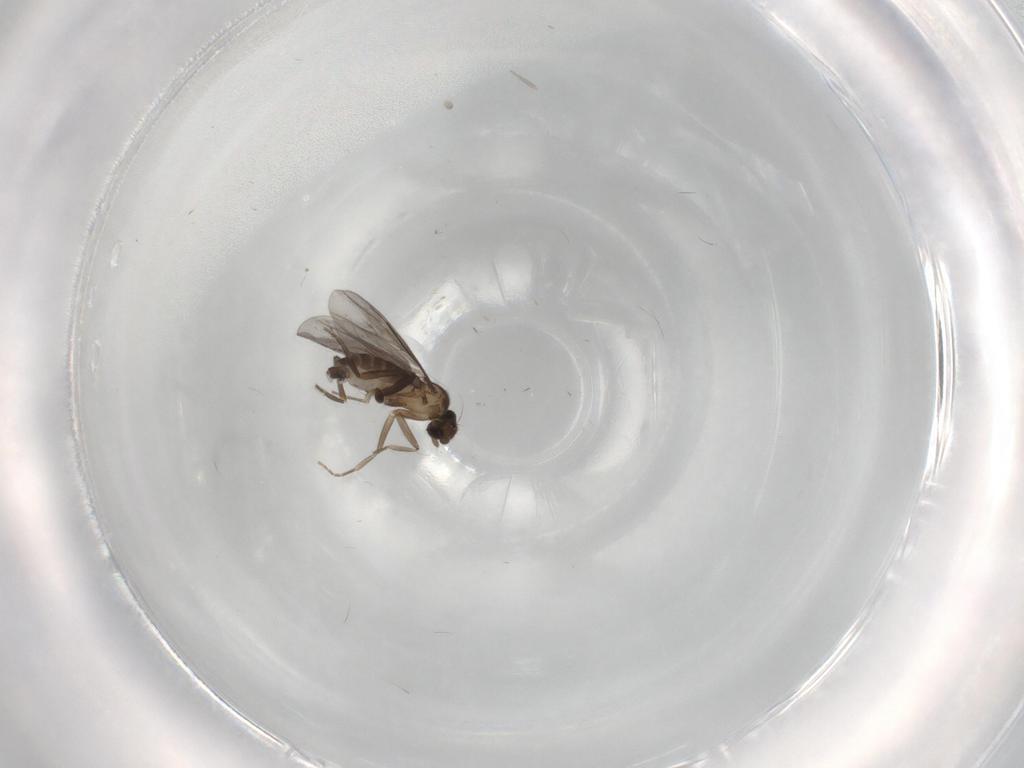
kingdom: Animalia
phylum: Arthropoda
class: Insecta
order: Diptera
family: Phoridae
